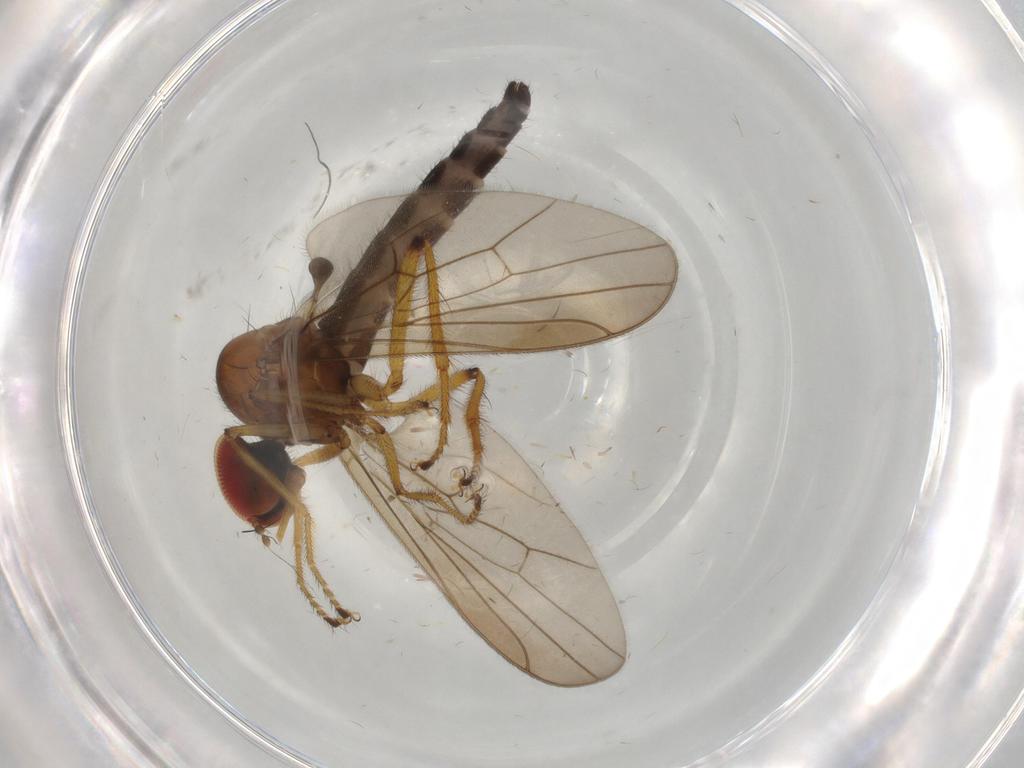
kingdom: Animalia
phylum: Arthropoda
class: Insecta
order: Diptera
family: Hybotidae
